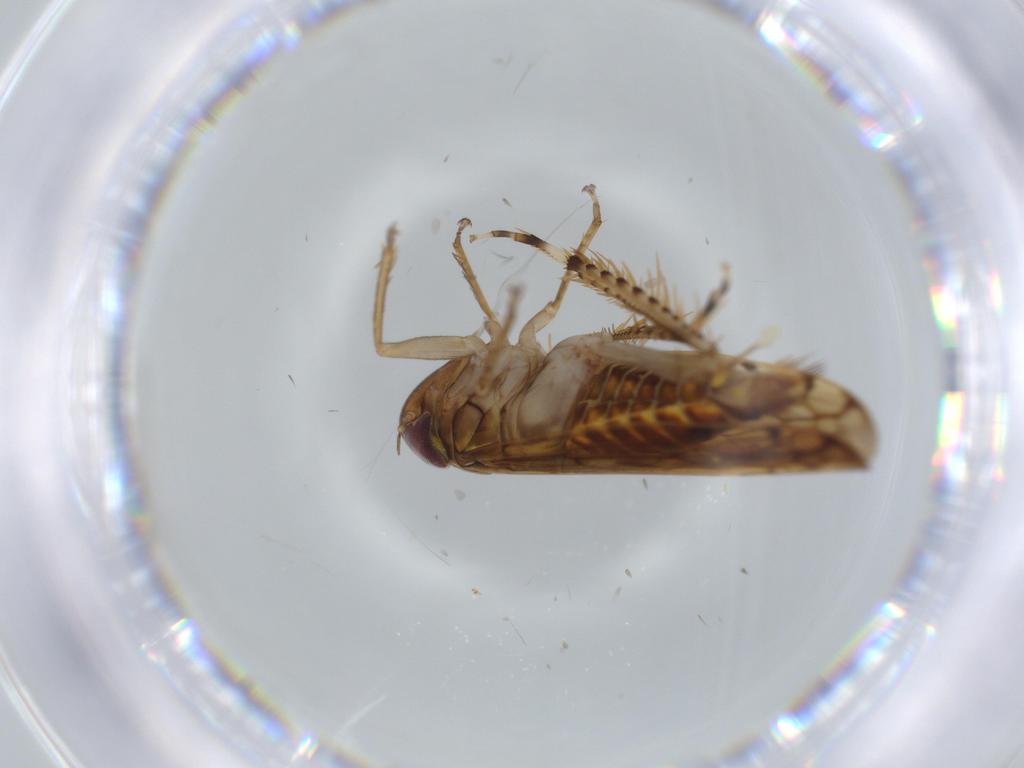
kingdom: Animalia
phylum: Arthropoda
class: Insecta
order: Hemiptera
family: Cicadellidae
